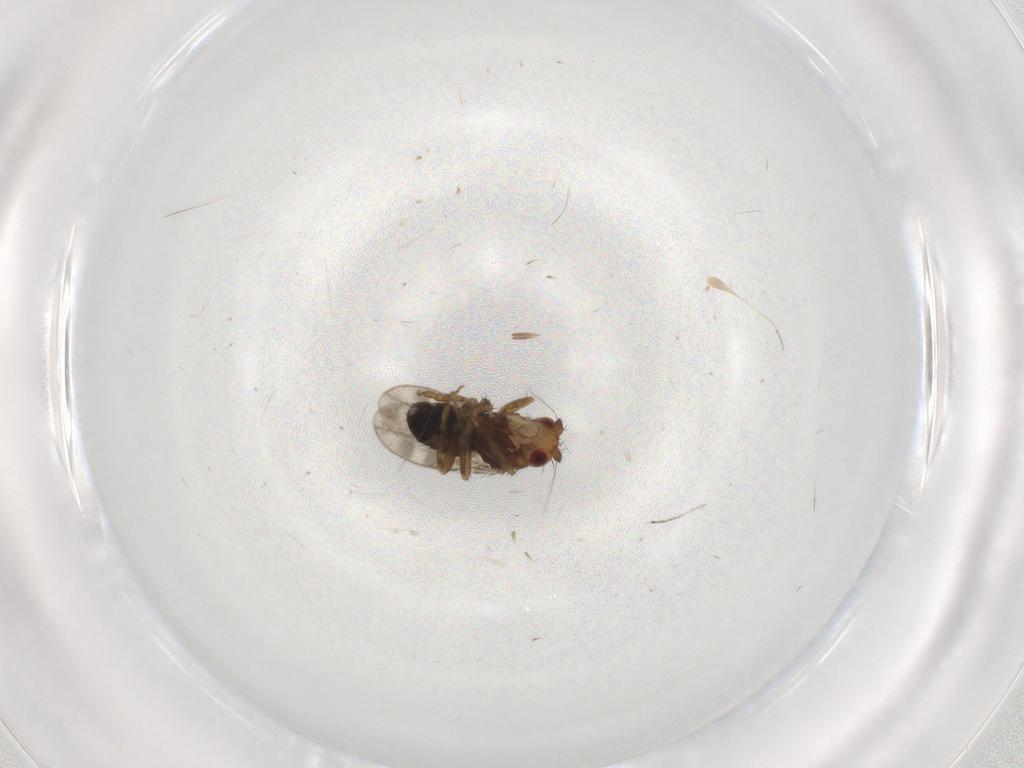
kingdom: Animalia
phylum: Arthropoda
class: Insecta
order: Diptera
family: Sphaeroceridae
